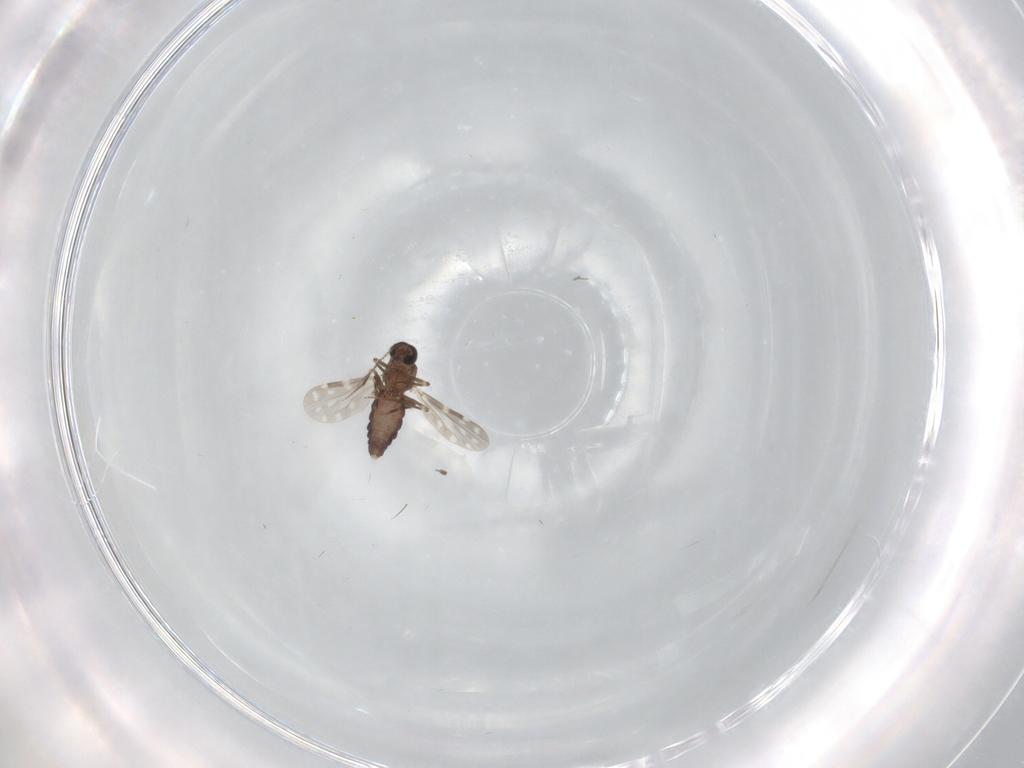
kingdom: Animalia
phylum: Arthropoda
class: Insecta
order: Diptera
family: Ceratopogonidae
